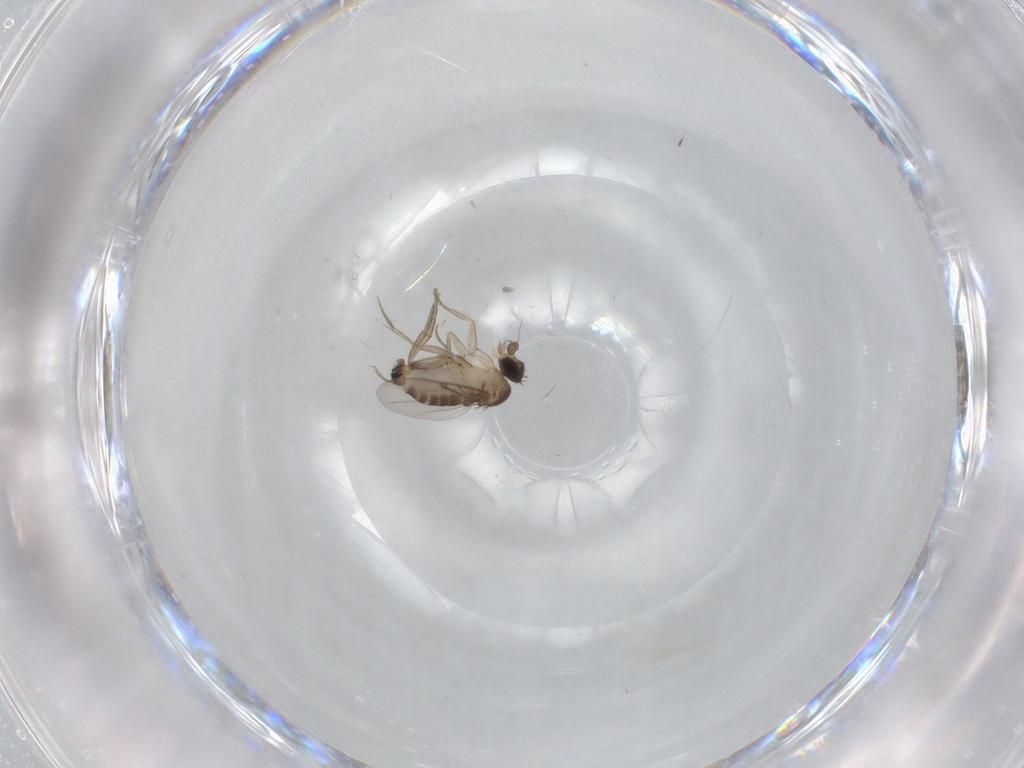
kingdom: Animalia
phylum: Arthropoda
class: Insecta
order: Diptera
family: Phoridae
